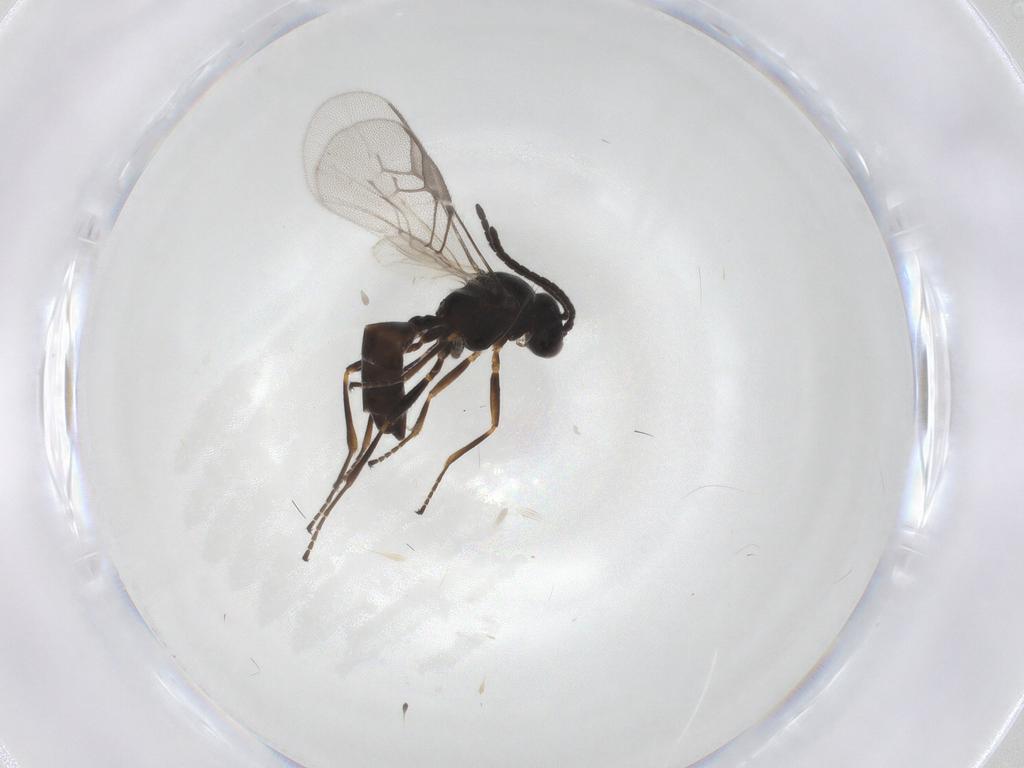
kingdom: Animalia
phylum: Arthropoda
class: Insecta
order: Hymenoptera
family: Braconidae
